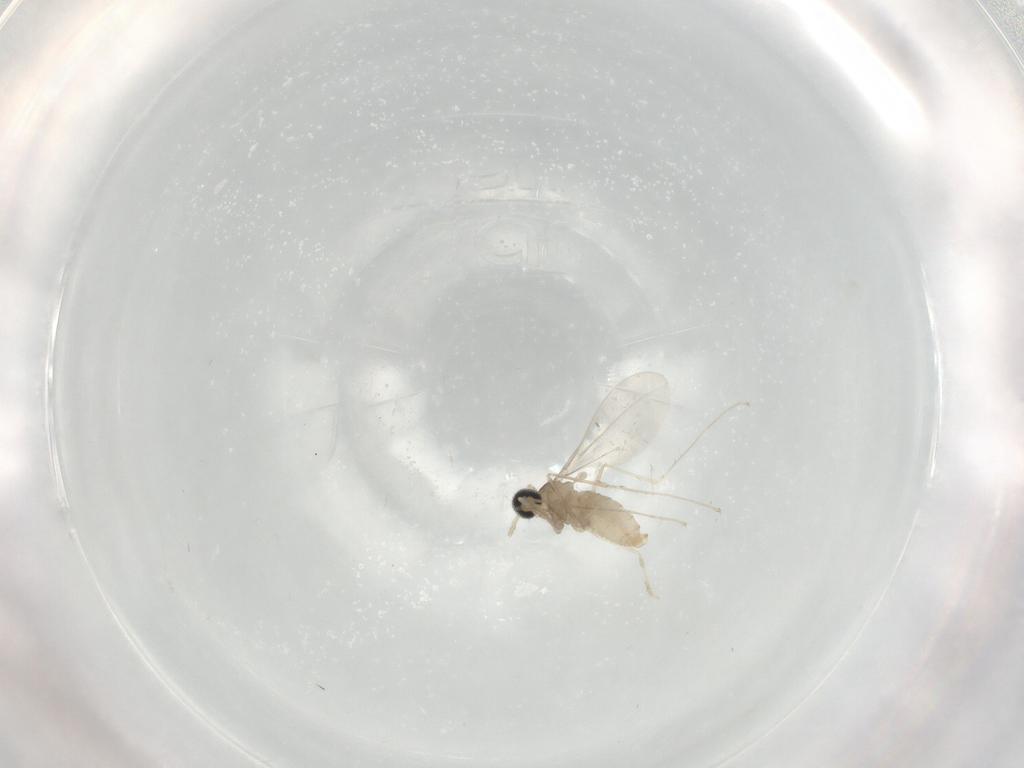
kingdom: Animalia
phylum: Arthropoda
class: Insecta
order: Diptera
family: Cecidomyiidae
